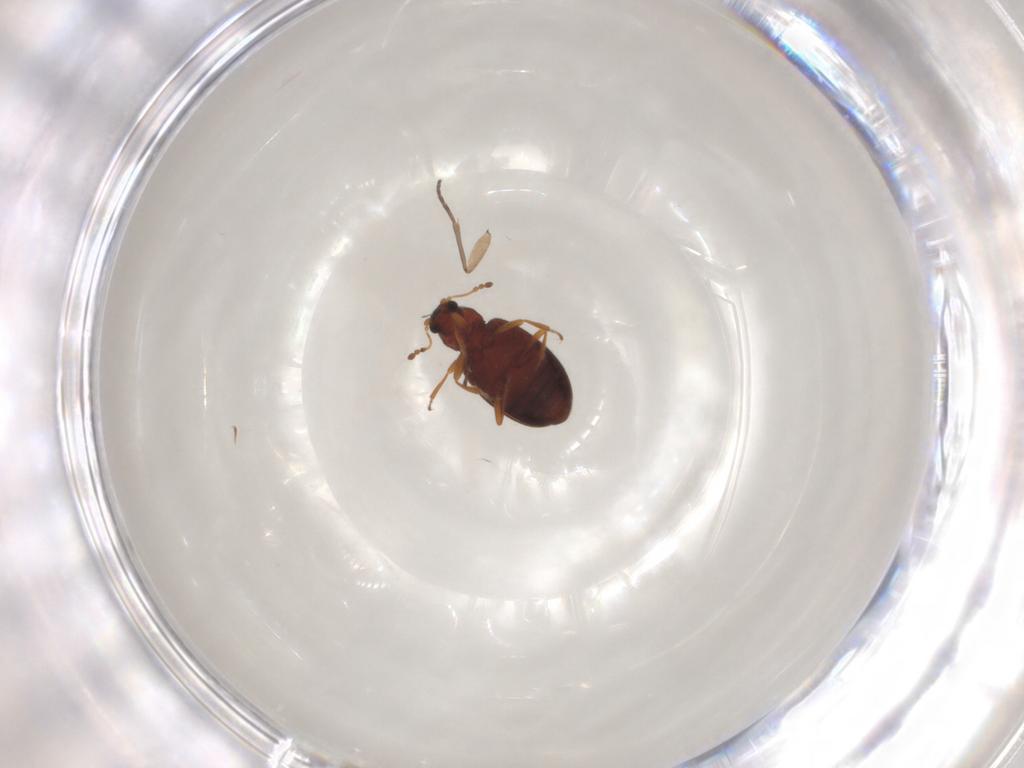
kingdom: Animalia
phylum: Arthropoda
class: Insecta
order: Coleoptera
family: Latridiidae
